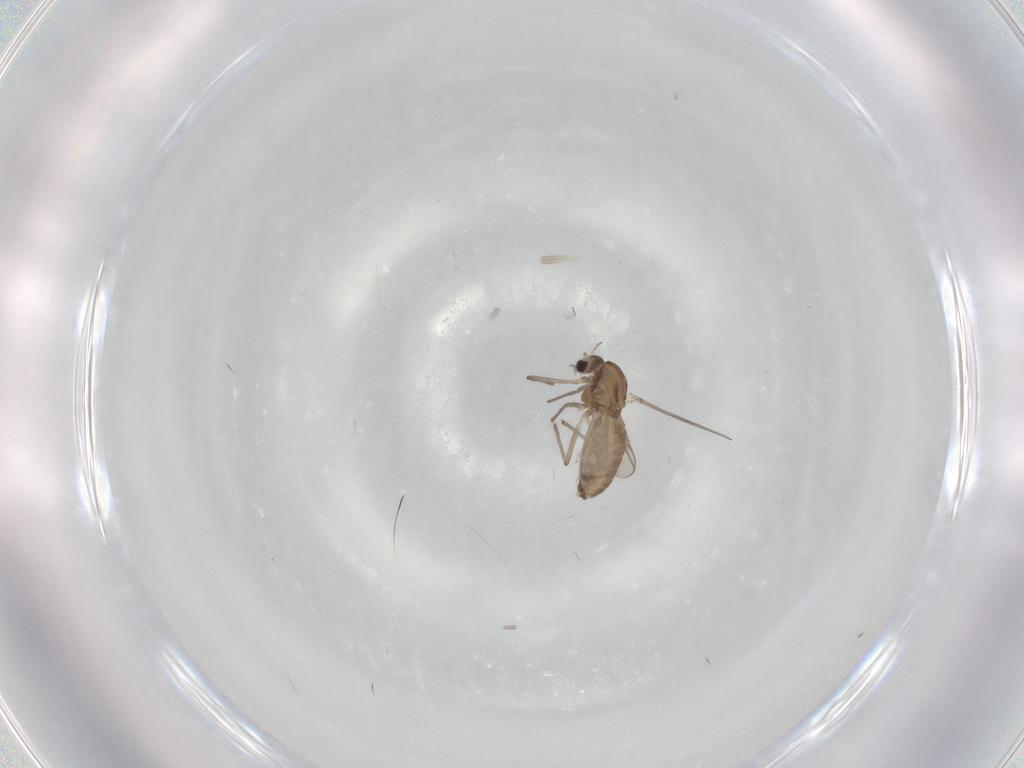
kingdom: Animalia
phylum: Arthropoda
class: Insecta
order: Diptera
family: Chironomidae
